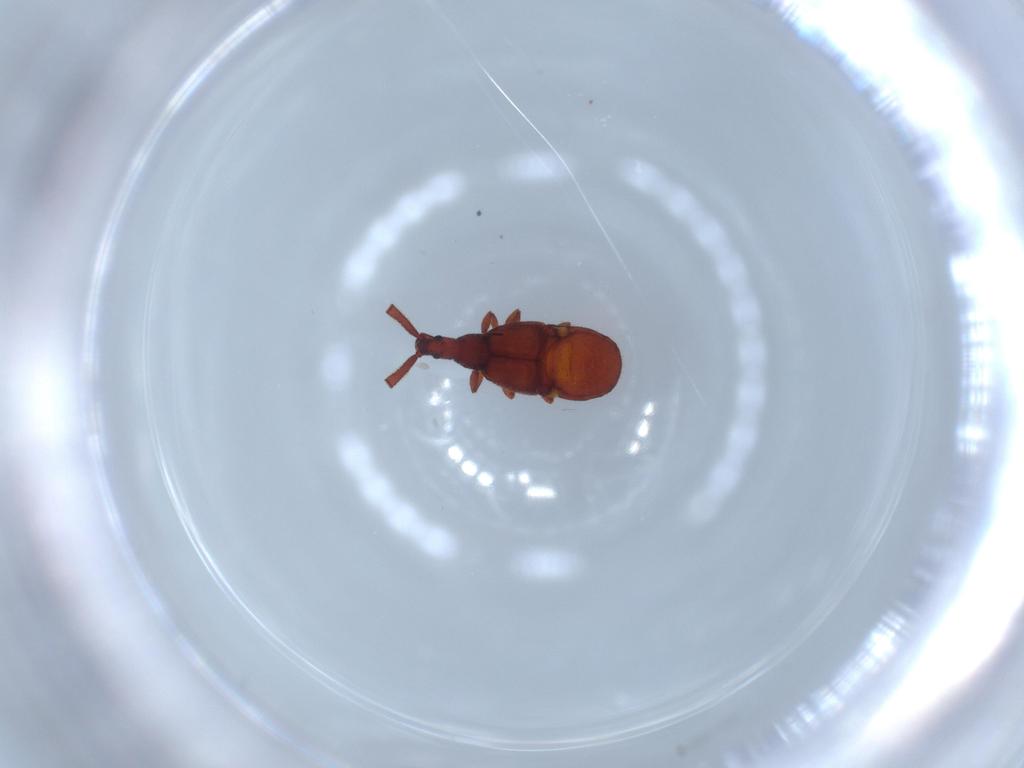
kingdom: Animalia
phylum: Arthropoda
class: Insecta
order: Coleoptera
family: Staphylinidae
